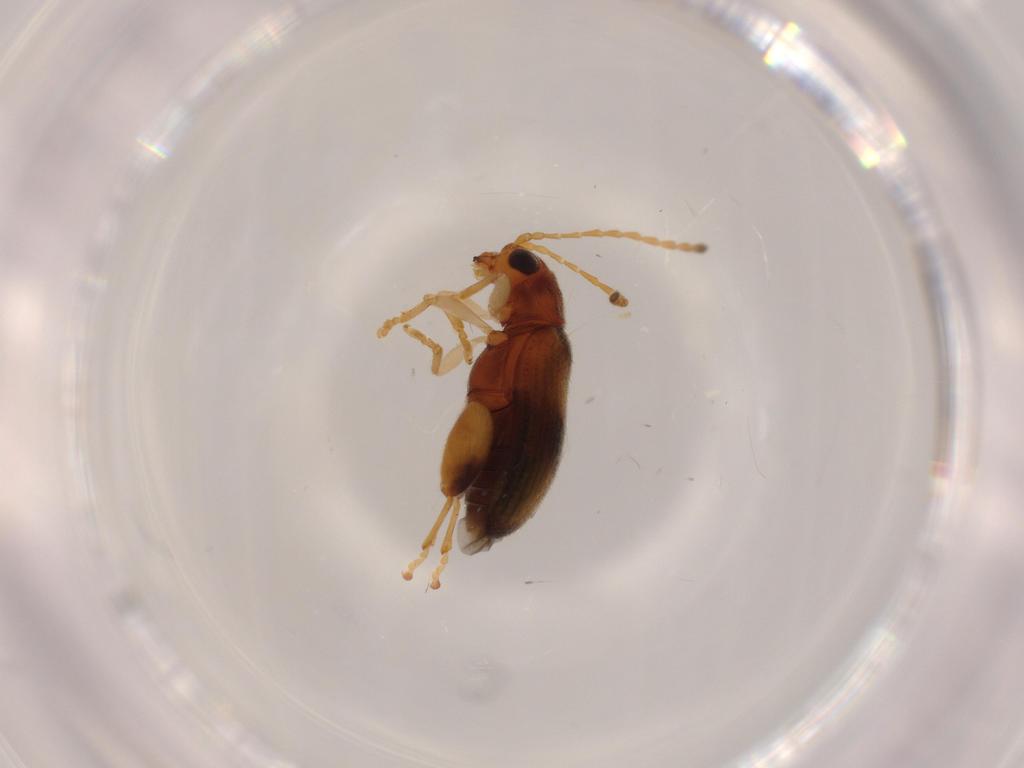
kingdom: Animalia
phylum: Arthropoda
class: Insecta
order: Coleoptera
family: Chrysomelidae
